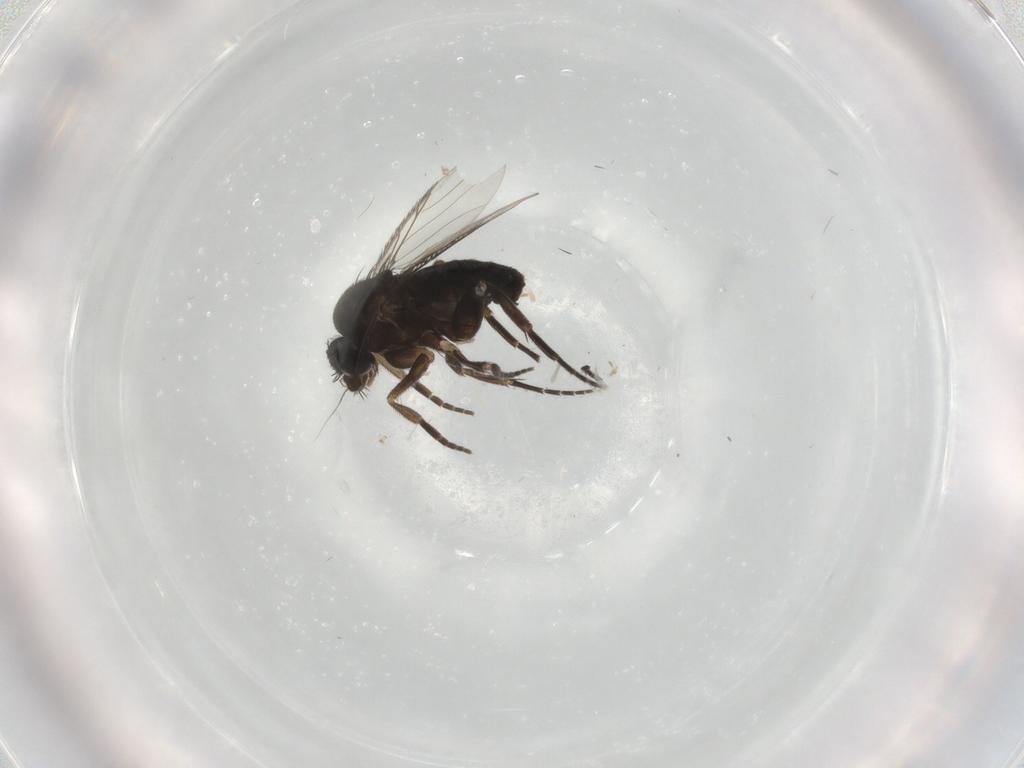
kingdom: Animalia
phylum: Arthropoda
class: Insecta
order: Diptera
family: Phoridae
